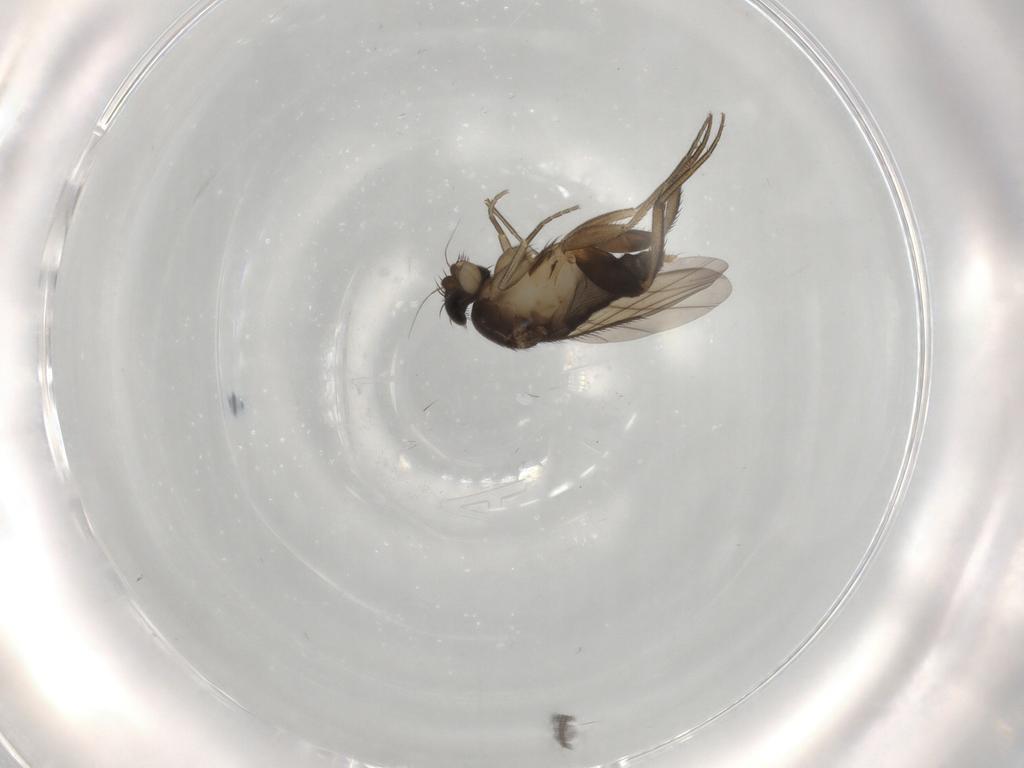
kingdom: Animalia
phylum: Arthropoda
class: Insecta
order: Diptera
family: Phoridae
